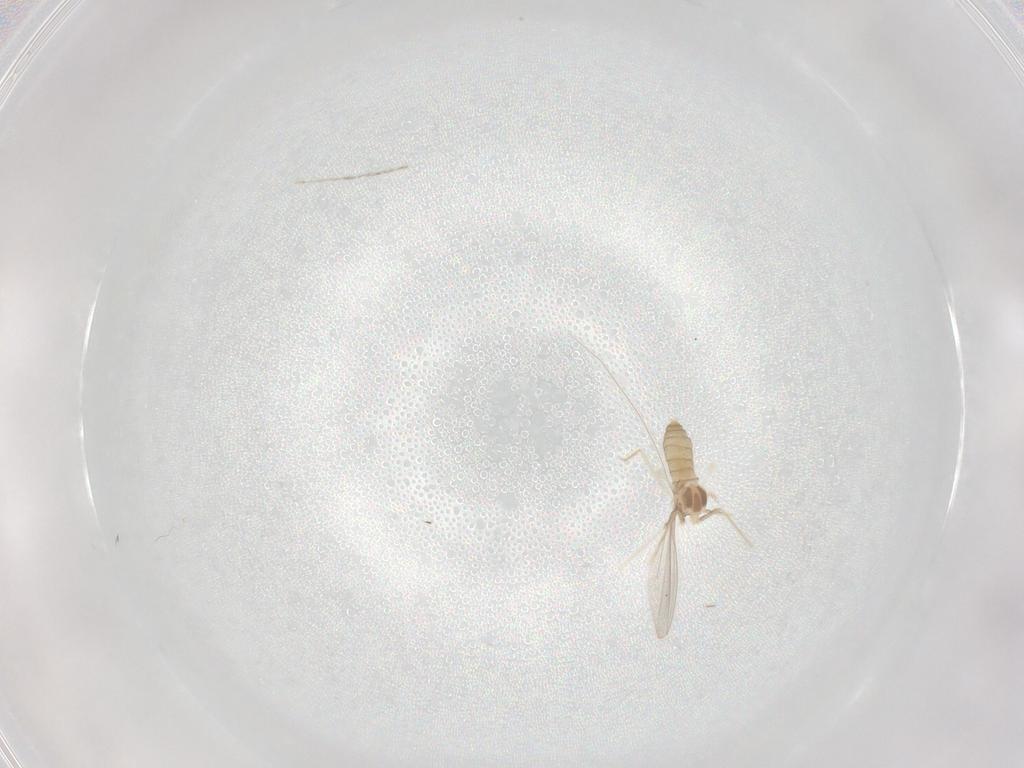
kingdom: Animalia
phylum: Arthropoda
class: Insecta
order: Diptera
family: Cecidomyiidae
